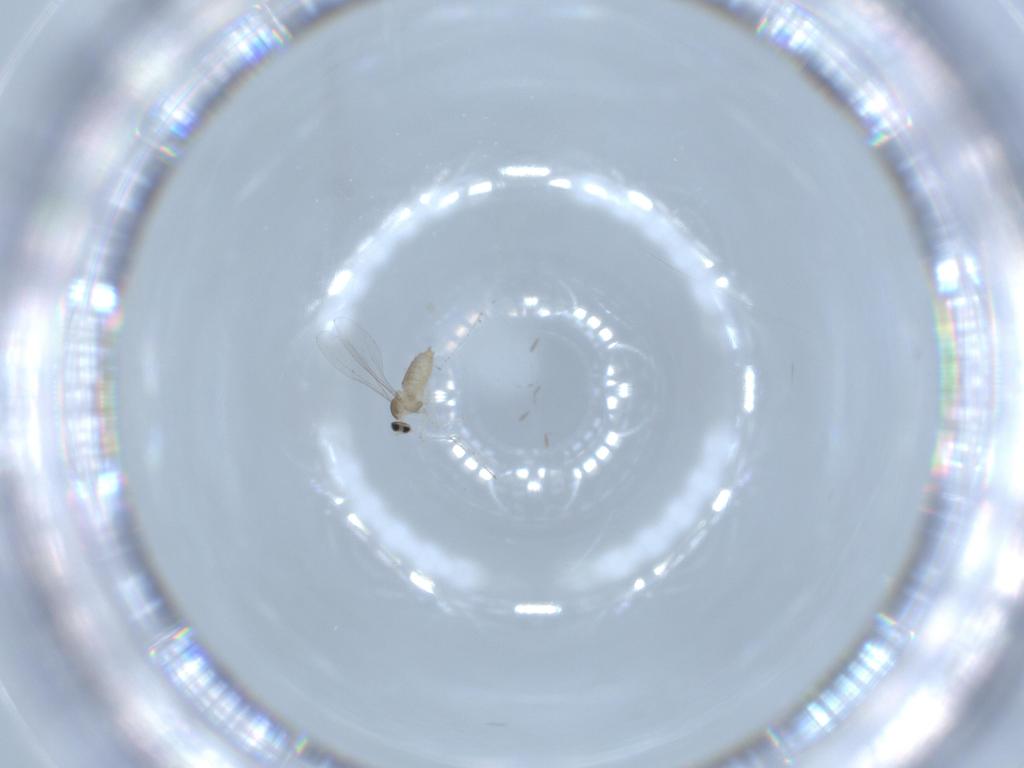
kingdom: Animalia
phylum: Arthropoda
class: Insecta
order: Diptera
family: Cecidomyiidae
